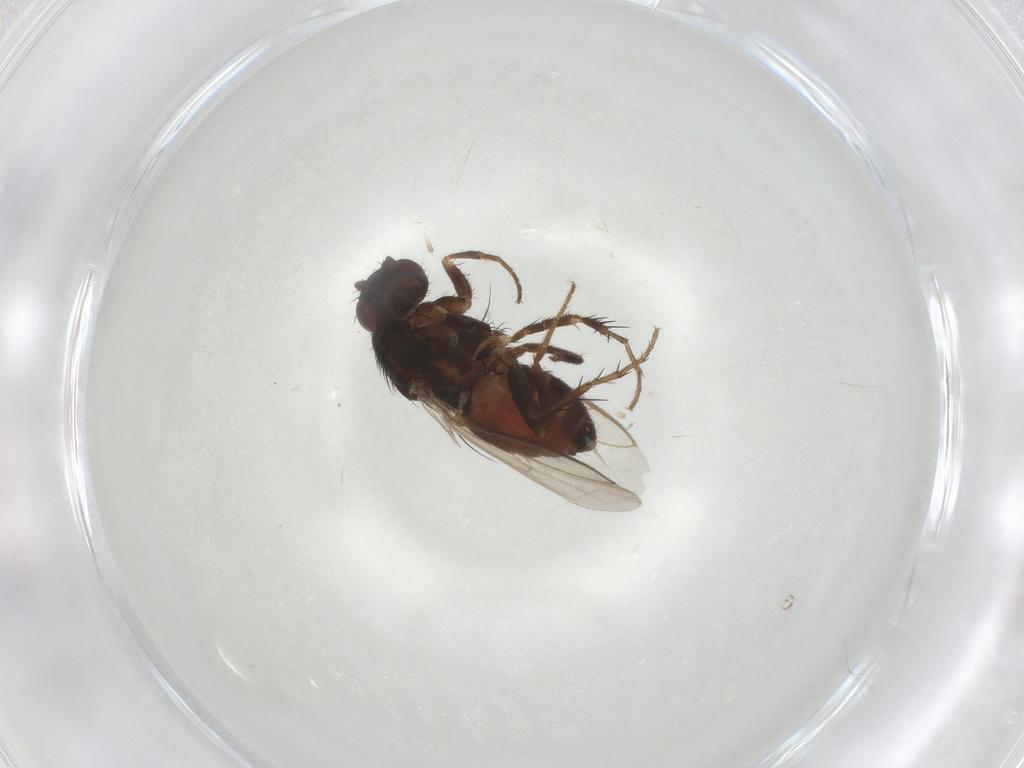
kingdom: Animalia
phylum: Arthropoda
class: Insecta
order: Diptera
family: Sphaeroceridae
